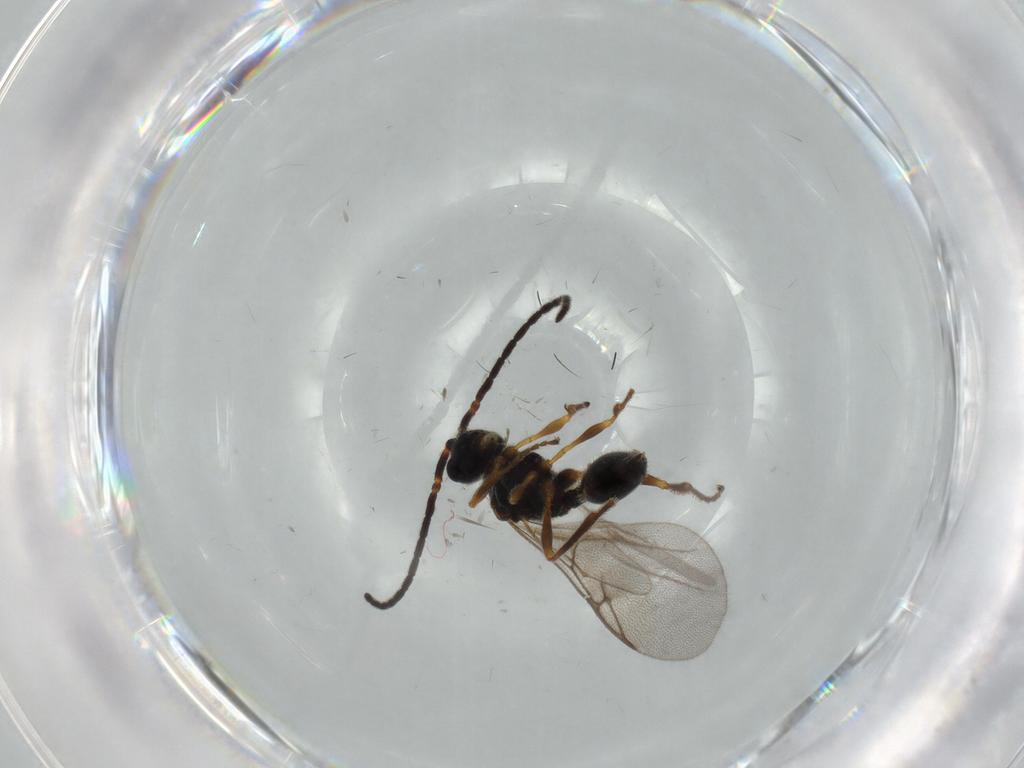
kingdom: Animalia
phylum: Arthropoda
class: Insecta
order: Hymenoptera
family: Diapriidae
